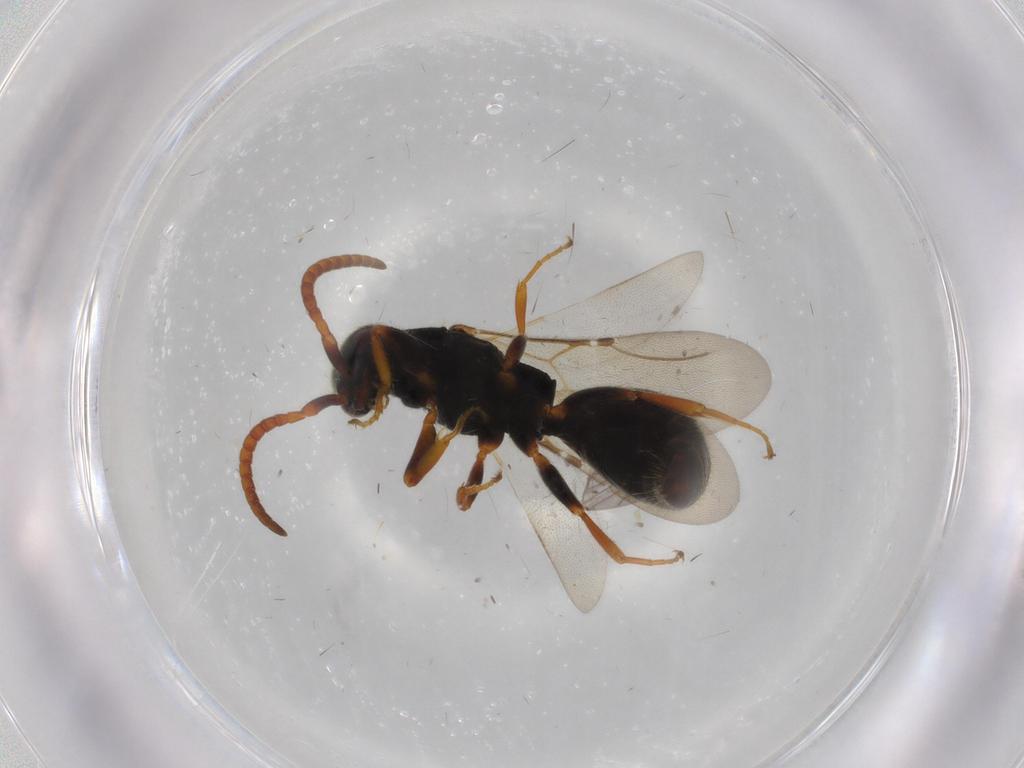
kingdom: Animalia
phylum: Arthropoda
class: Insecta
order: Hymenoptera
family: Bethylidae
